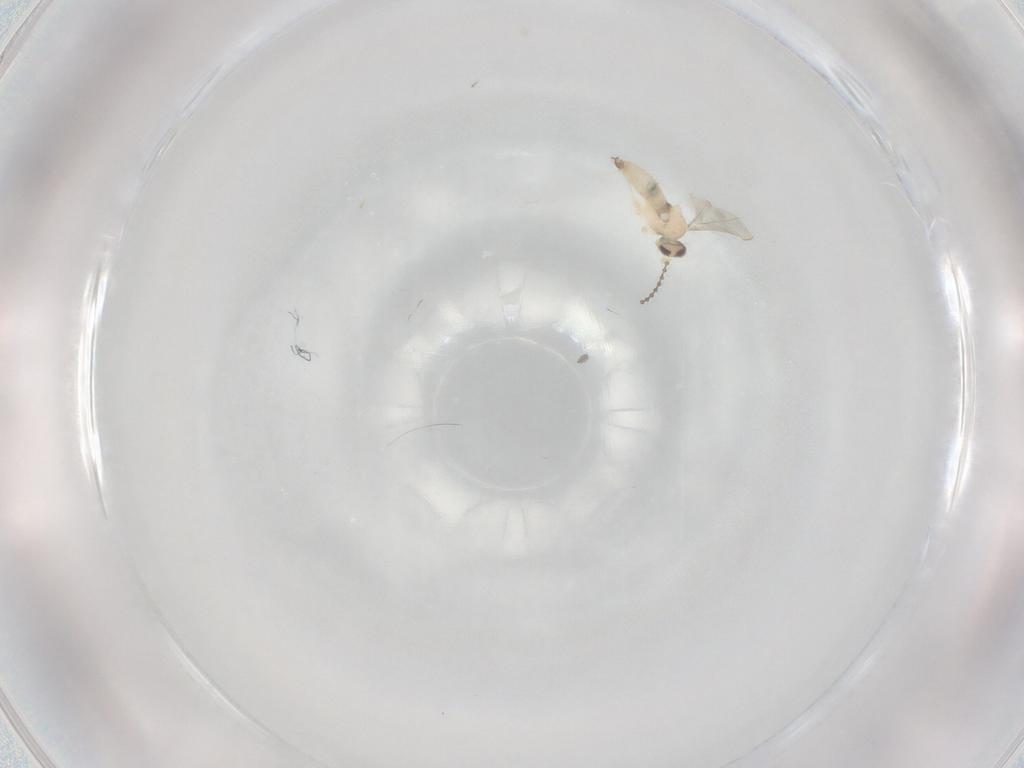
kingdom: Animalia
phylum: Arthropoda
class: Insecta
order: Diptera
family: Cecidomyiidae
